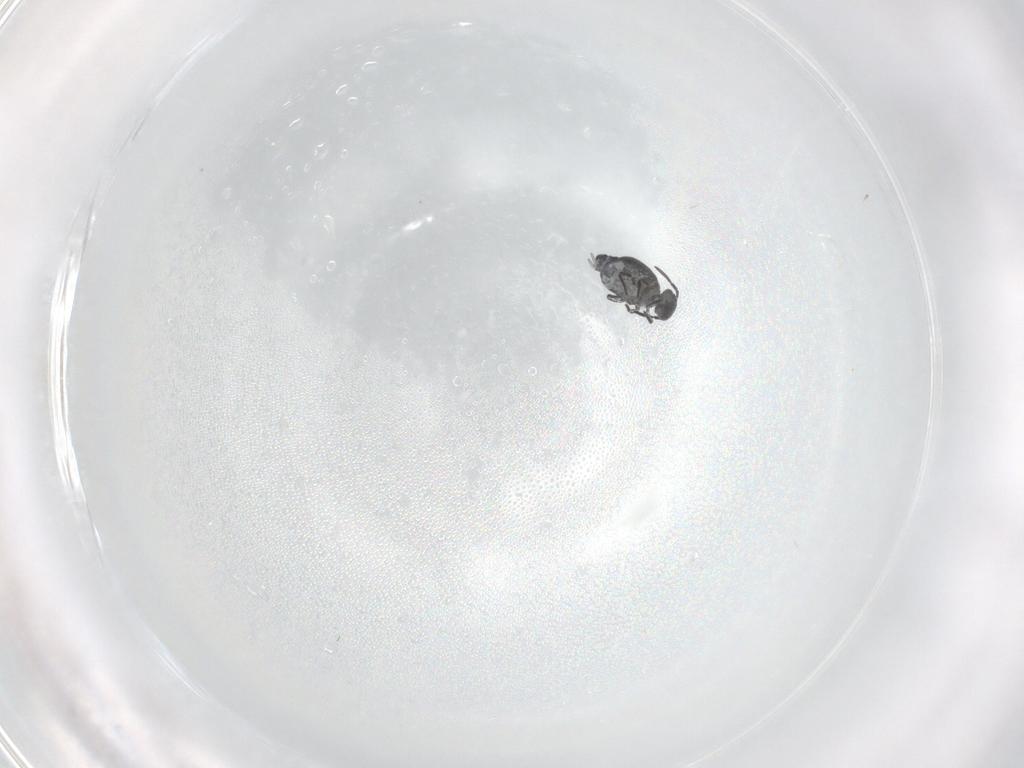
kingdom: Animalia
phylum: Arthropoda
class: Collembola
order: Symphypleona
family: Katiannidae
